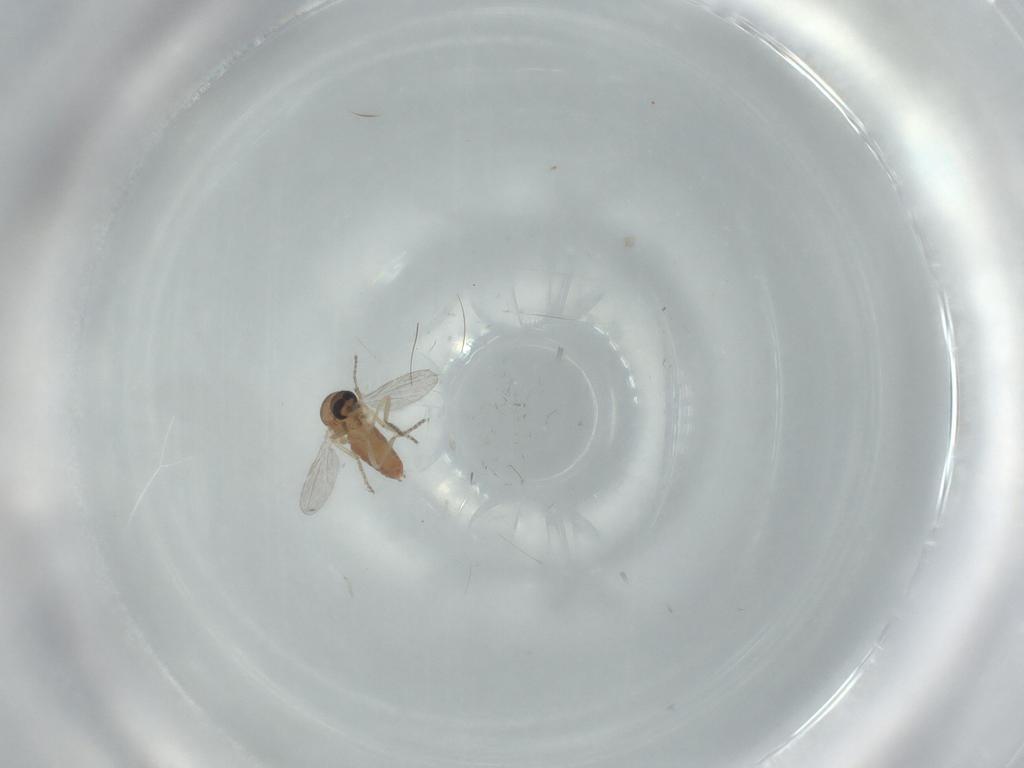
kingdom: Animalia
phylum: Arthropoda
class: Insecta
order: Diptera
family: Ceratopogonidae
